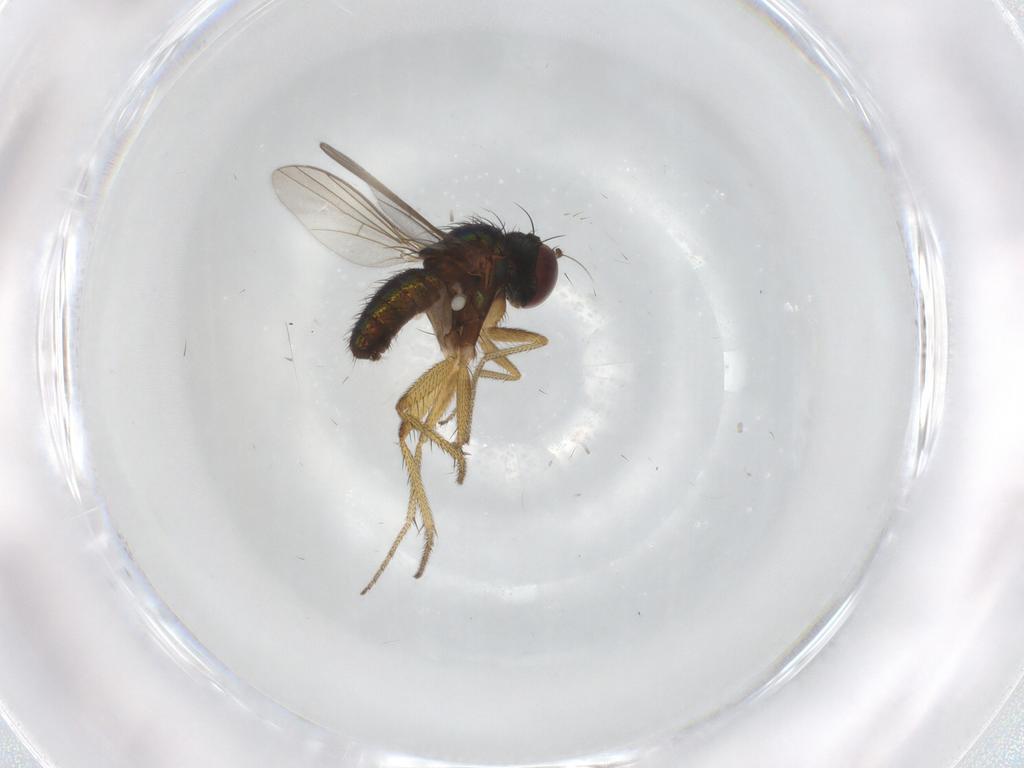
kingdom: Animalia
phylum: Arthropoda
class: Insecta
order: Diptera
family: Dolichopodidae
